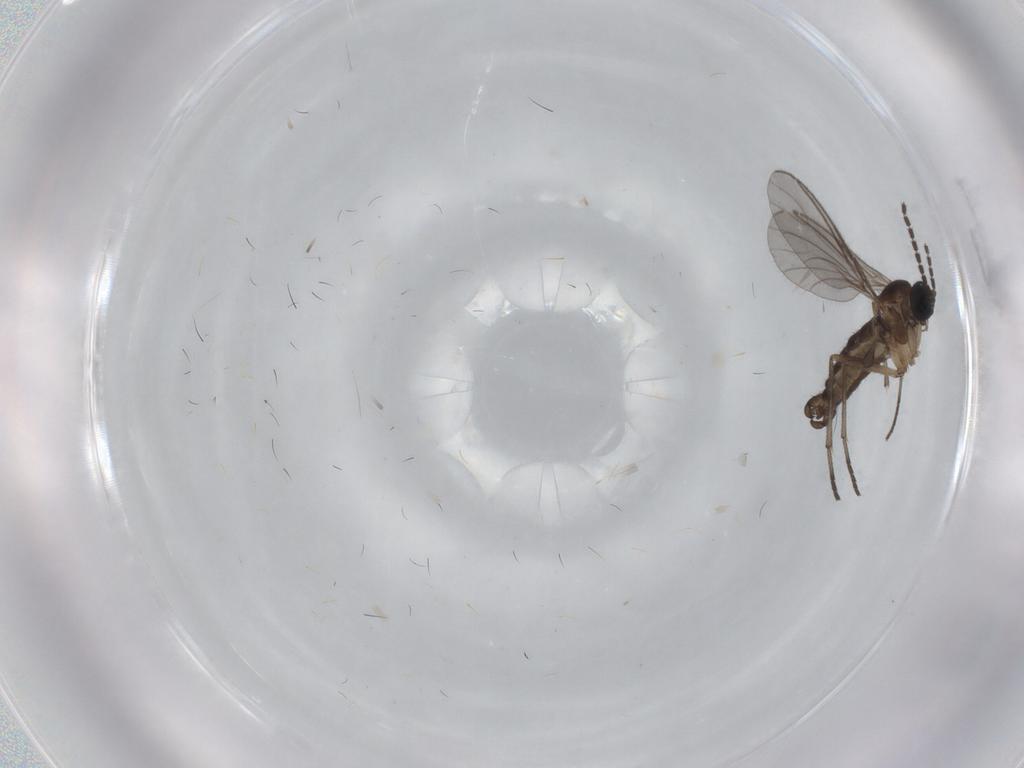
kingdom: Animalia
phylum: Arthropoda
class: Insecta
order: Diptera
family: Sciaridae
